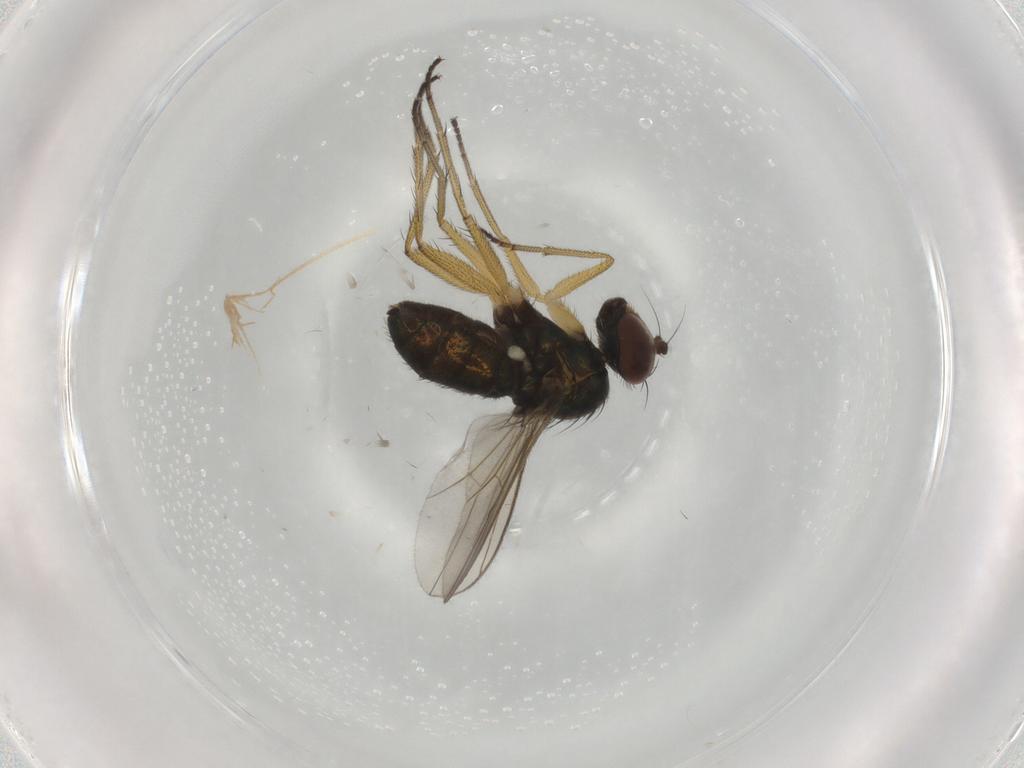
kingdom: Animalia
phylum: Arthropoda
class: Insecta
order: Diptera
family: Dolichopodidae
